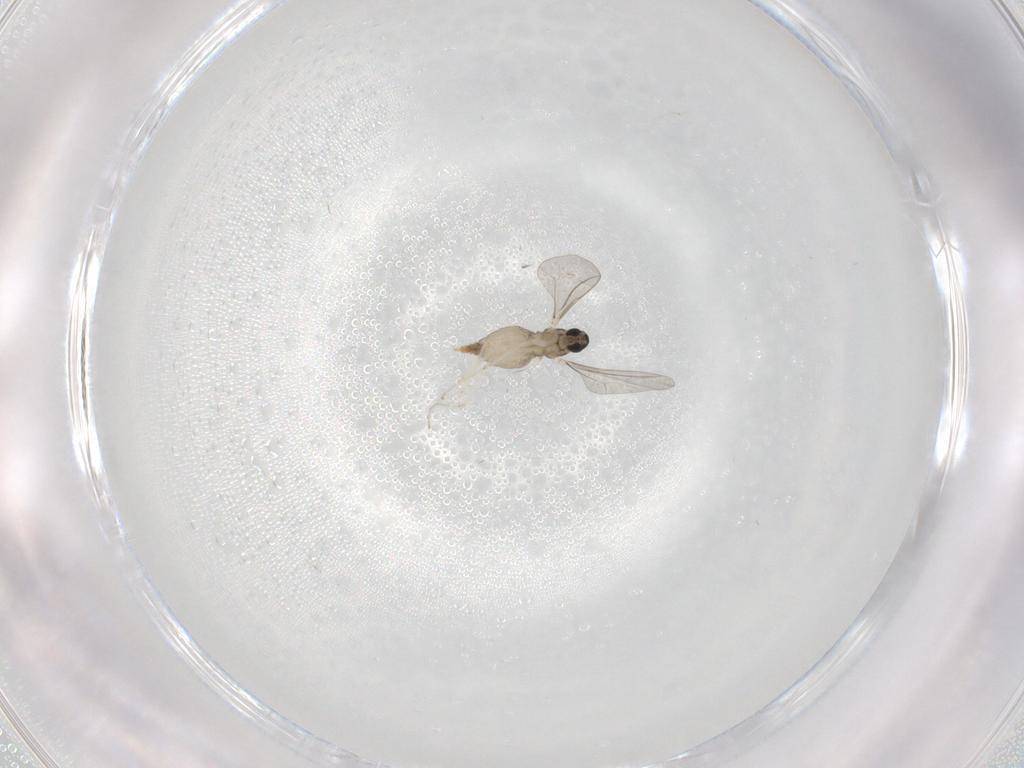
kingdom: Animalia
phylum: Arthropoda
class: Insecta
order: Diptera
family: Cecidomyiidae
